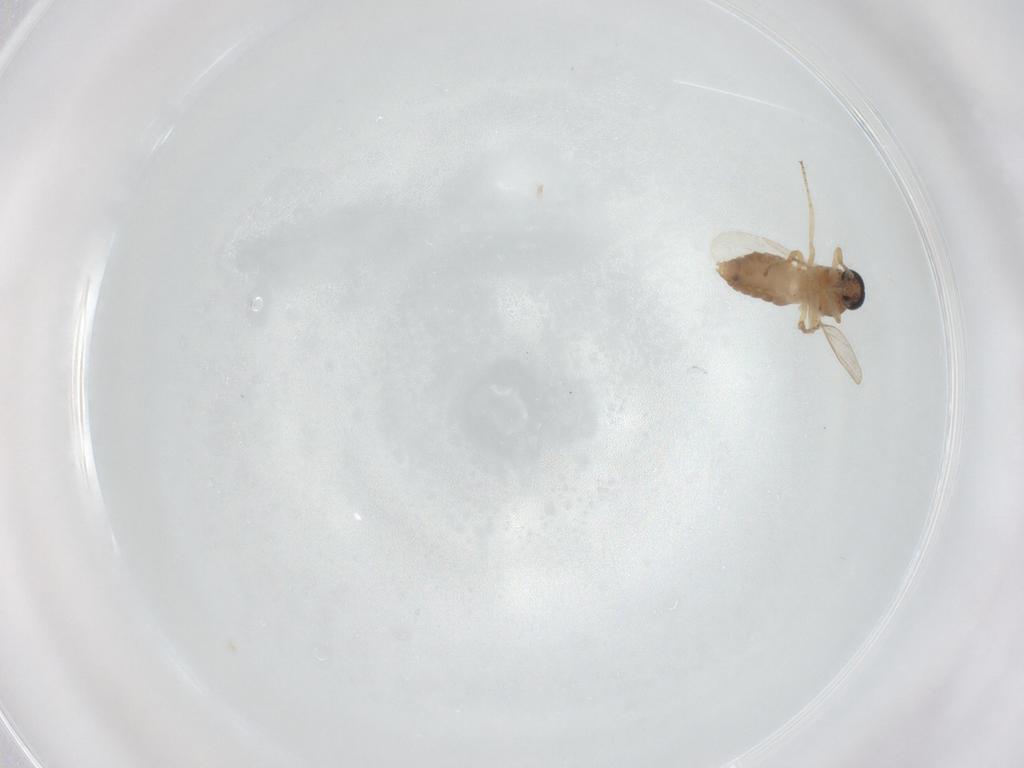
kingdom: Animalia
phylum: Arthropoda
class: Insecta
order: Diptera
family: Ceratopogonidae
